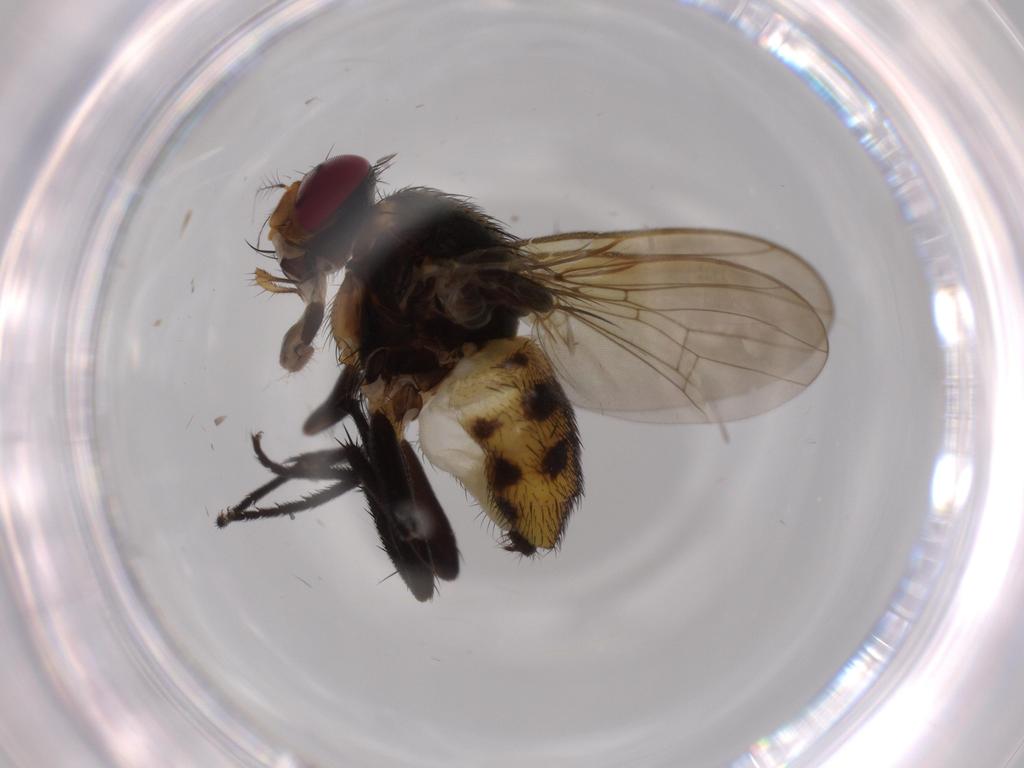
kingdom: Animalia
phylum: Arthropoda
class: Insecta
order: Diptera
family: Anthomyiidae
